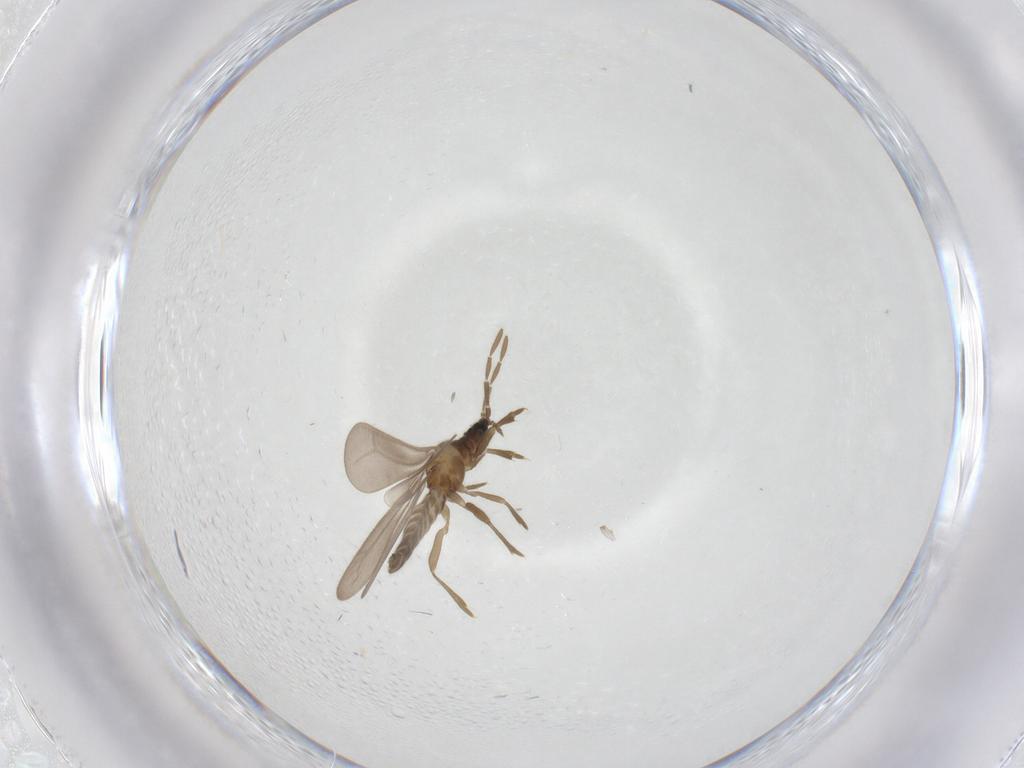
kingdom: Animalia
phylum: Arthropoda
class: Insecta
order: Hemiptera
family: Enicocephalidae
